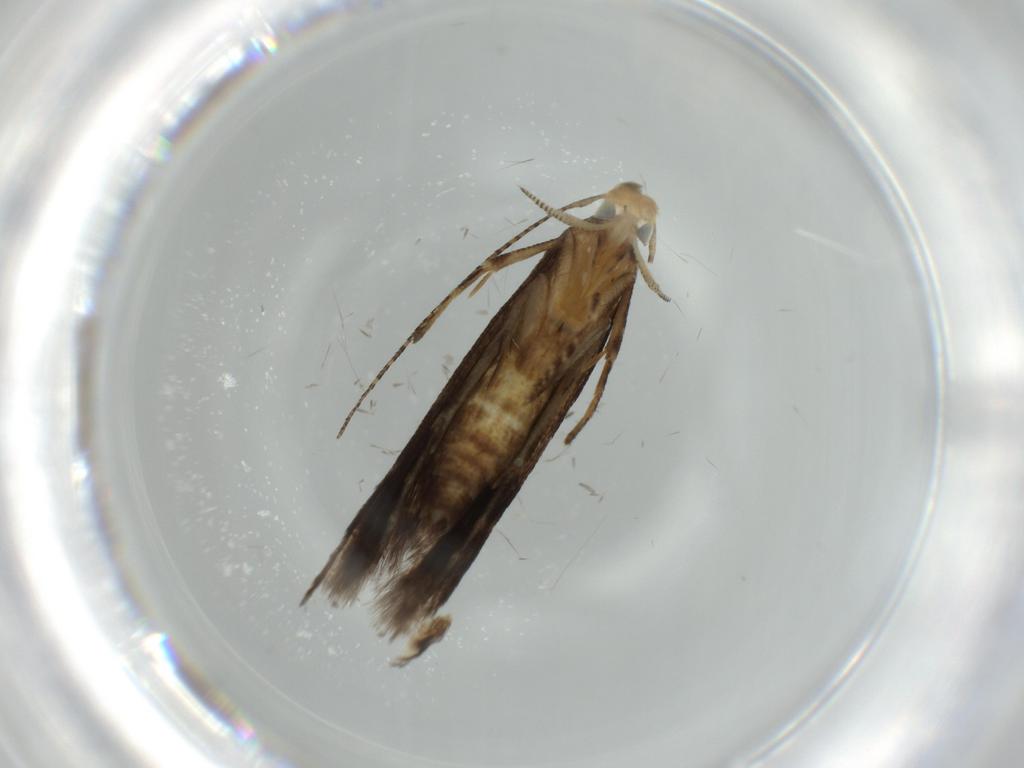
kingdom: Animalia
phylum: Arthropoda
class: Insecta
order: Lepidoptera
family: Gelechiidae
